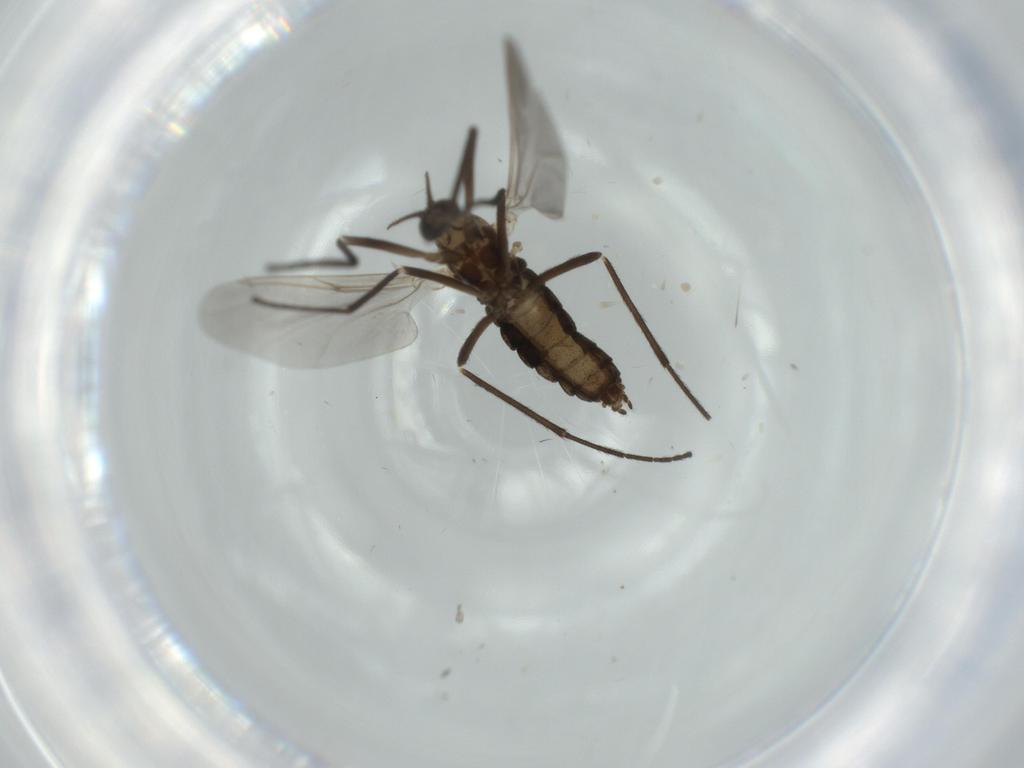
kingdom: Animalia
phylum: Arthropoda
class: Insecta
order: Diptera
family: Cecidomyiidae
